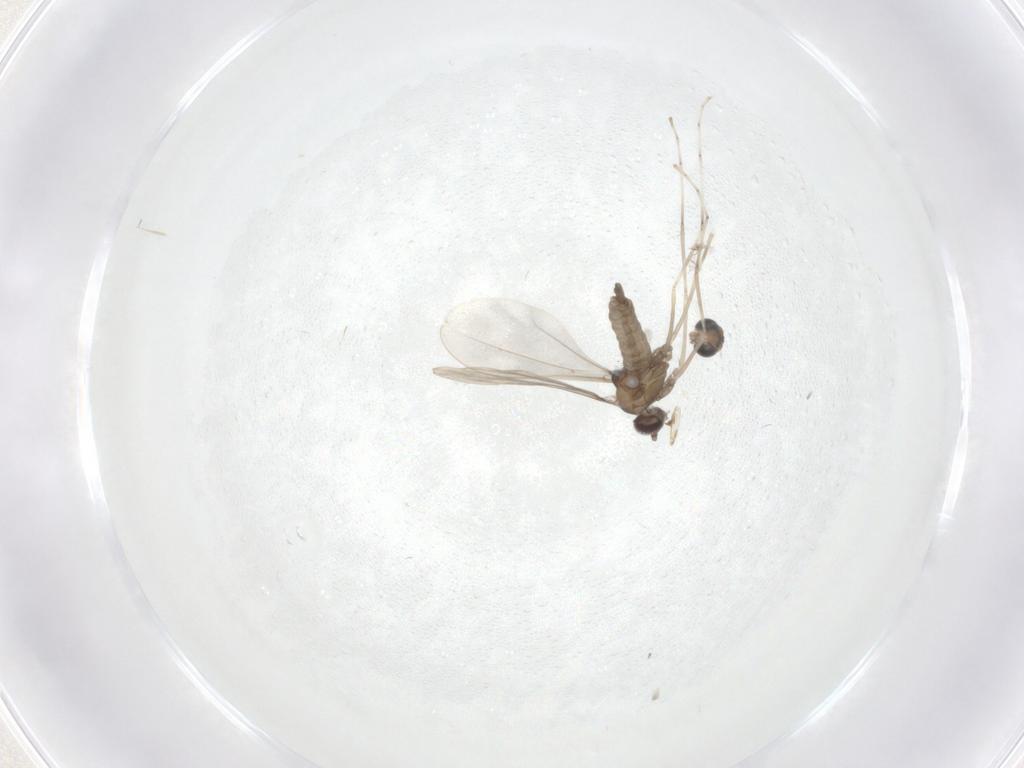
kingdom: Animalia
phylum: Arthropoda
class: Insecta
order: Diptera
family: Cecidomyiidae
